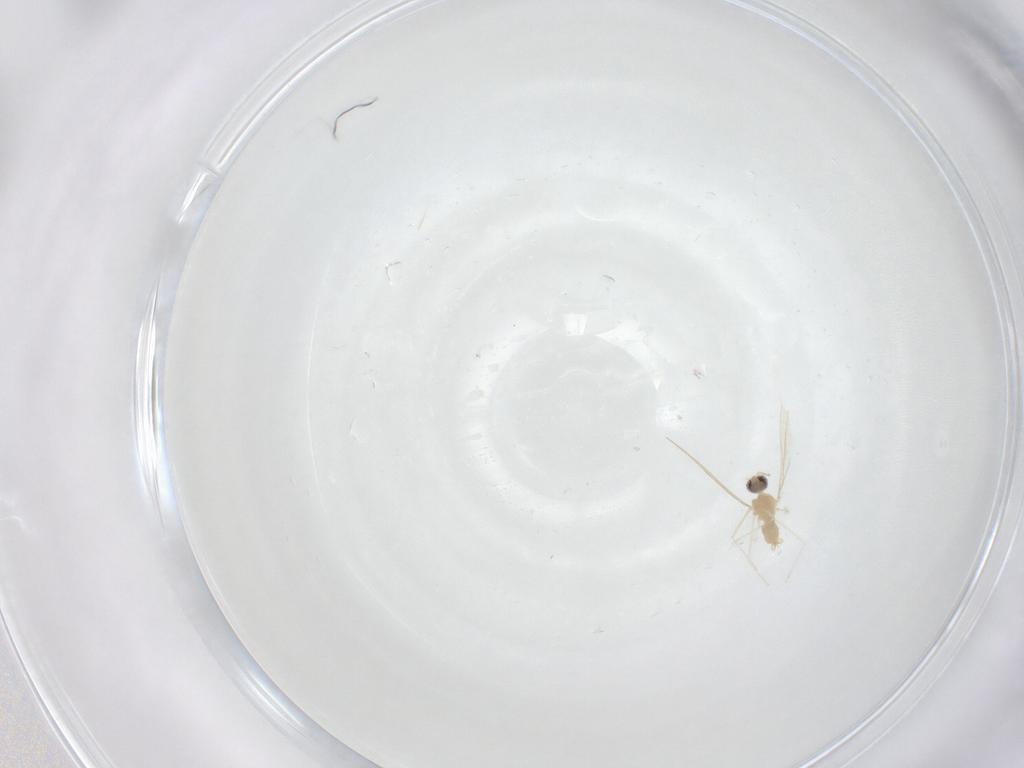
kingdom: Animalia
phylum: Arthropoda
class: Insecta
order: Diptera
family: Hybotidae
